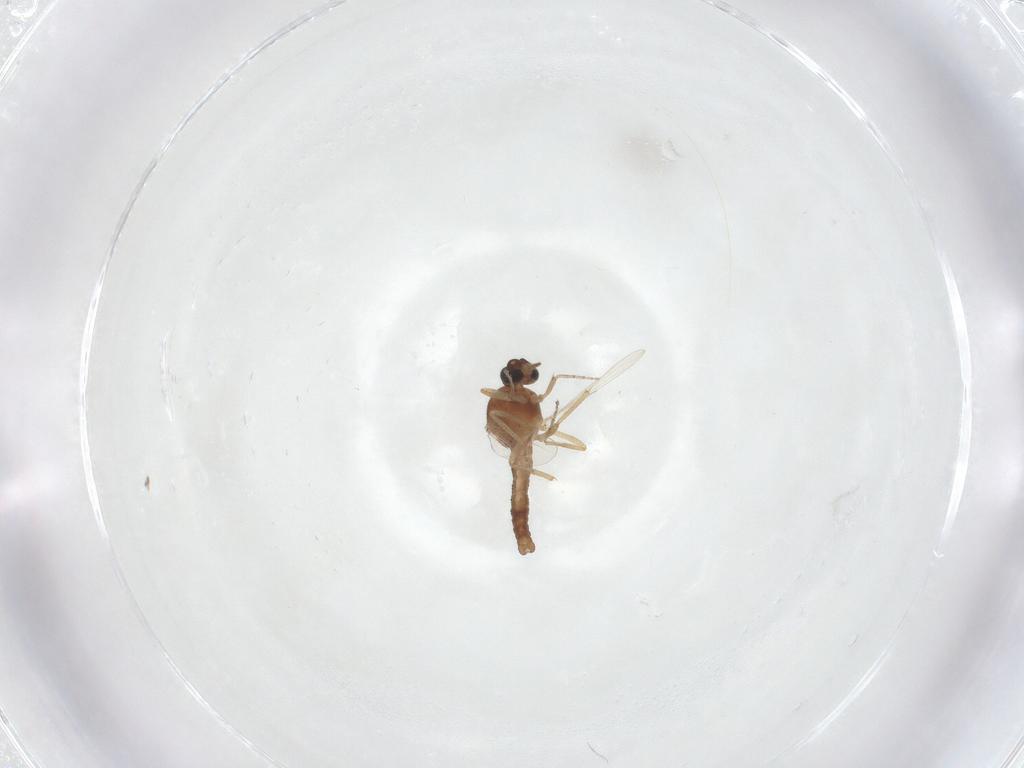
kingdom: Animalia
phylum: Arthropoda
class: Insecta
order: Diptera
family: Ceratopogonidae
